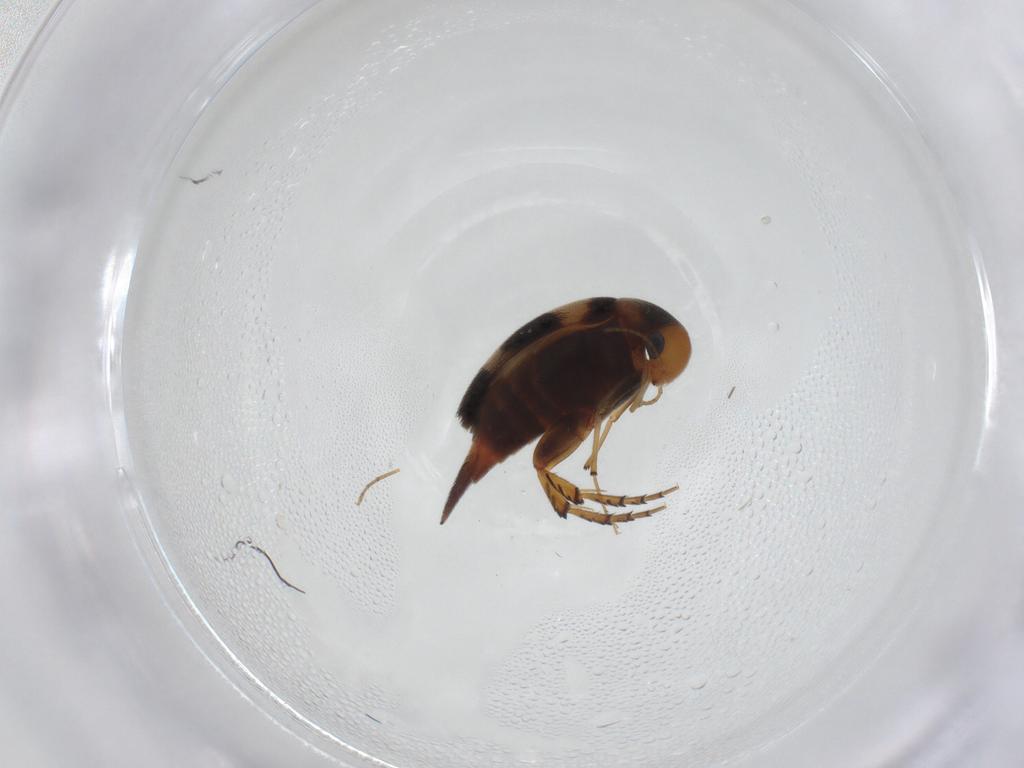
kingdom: Animalia
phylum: Arthropoda
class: Insecta
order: Coleoptera
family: Mordellidae
